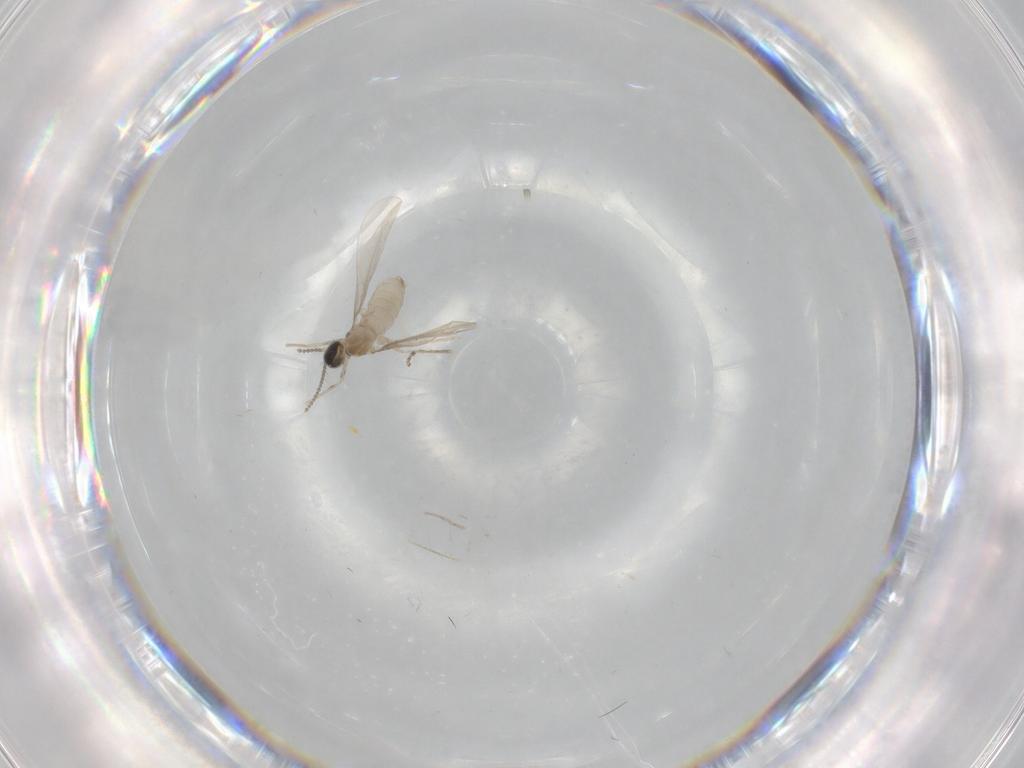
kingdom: Animalia
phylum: Arthropoda
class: Insecta
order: Diptera
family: Cecidomyiidae
